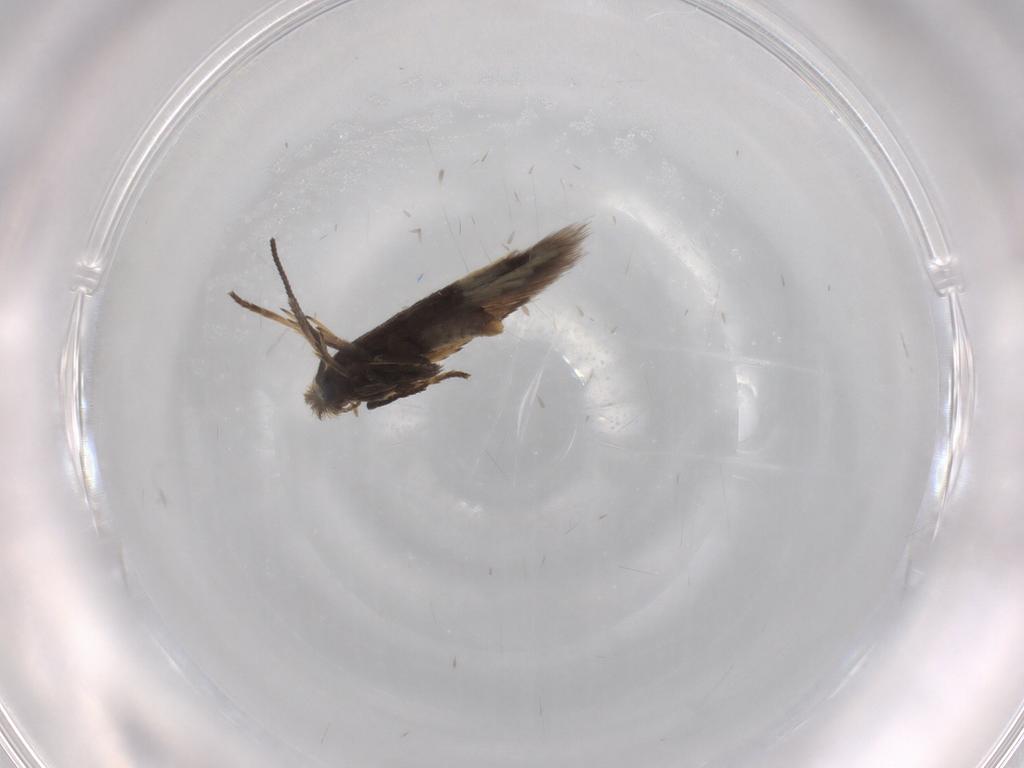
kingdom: Animalia
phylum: Arthropoda
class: Insecta
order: Lepidoptera
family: Nepticulidae
